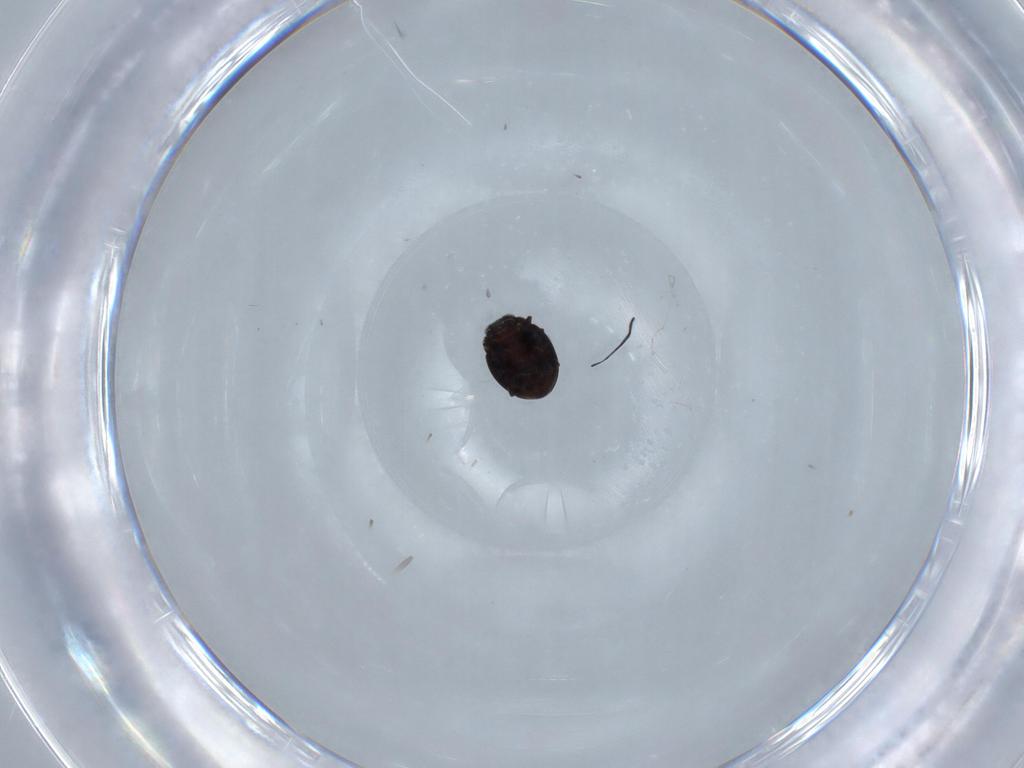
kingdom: Animalia
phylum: Arthropoda
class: Insecta
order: Coleoptera
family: Coccinellidae
